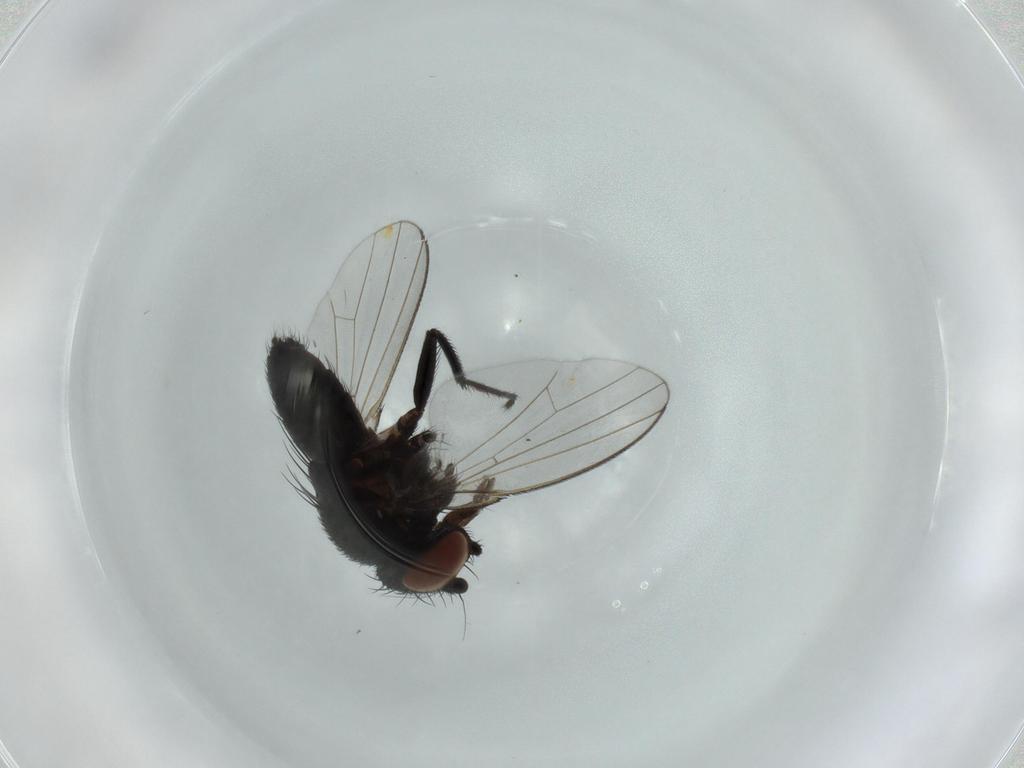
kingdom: Animalia
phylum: Arthropoda
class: Insecta
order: Diptera
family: Milichiidae
